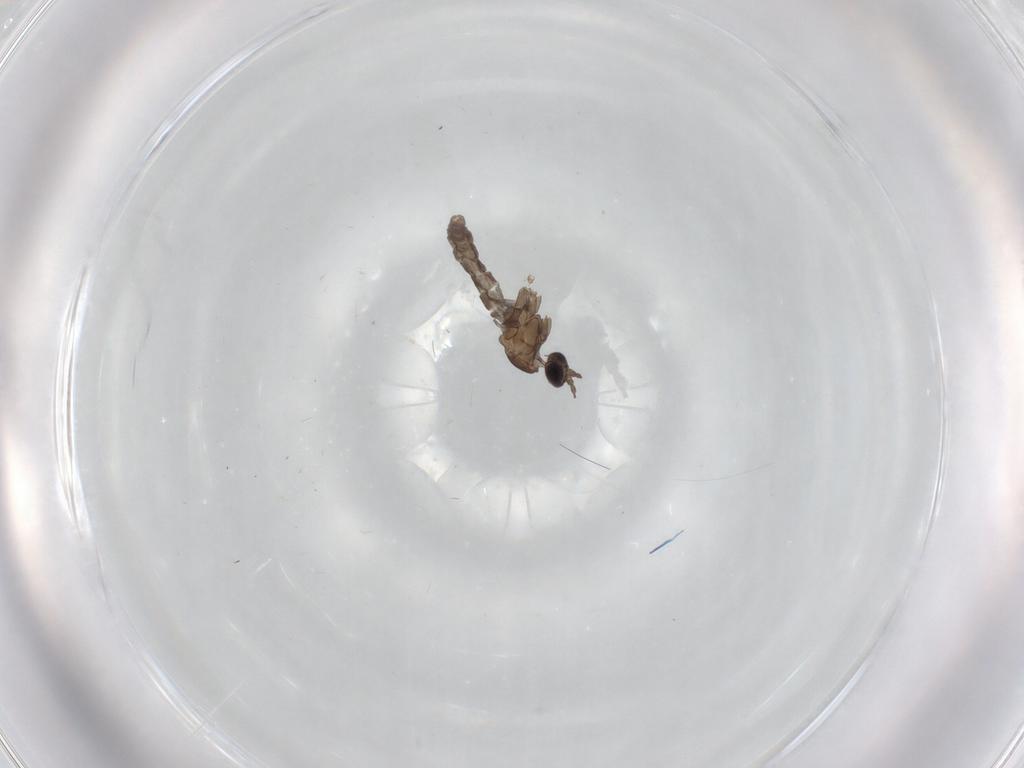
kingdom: Animalia
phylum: Arthropoda
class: Insecta
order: Diptera
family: Cecidomyiidae
